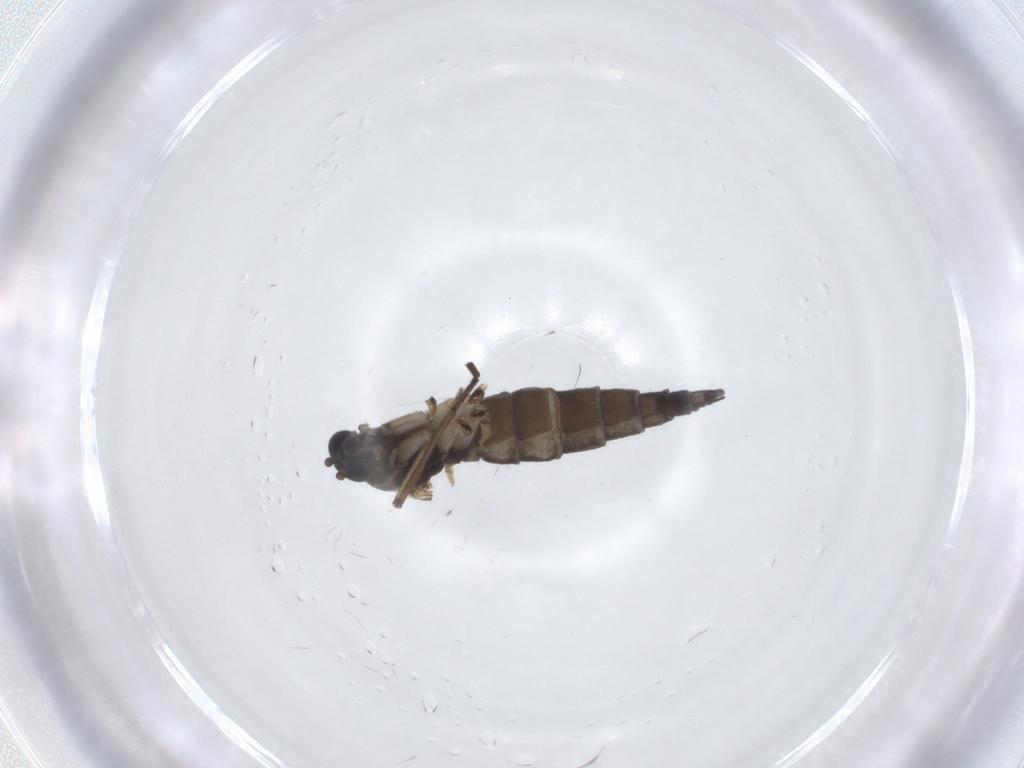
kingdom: Animalia
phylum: Arthropoda
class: Insecta
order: Diptera
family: Sciaridae
